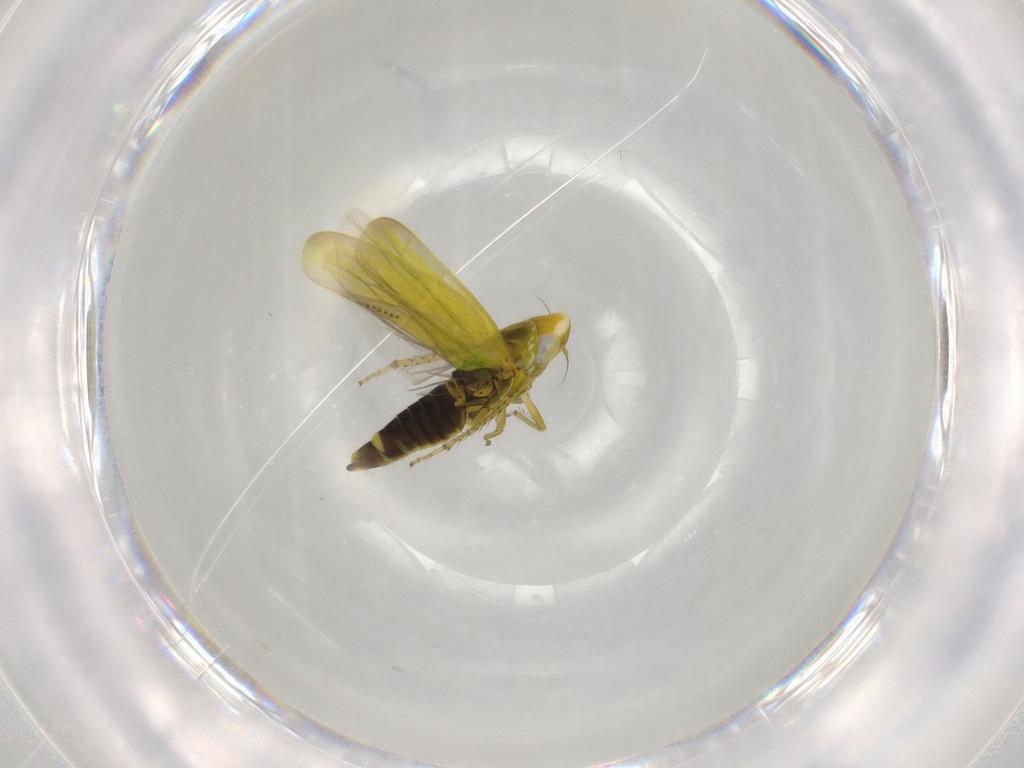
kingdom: Animalia
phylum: Arthropoda
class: Insecta
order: Hemiptera
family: Cicadellidae
